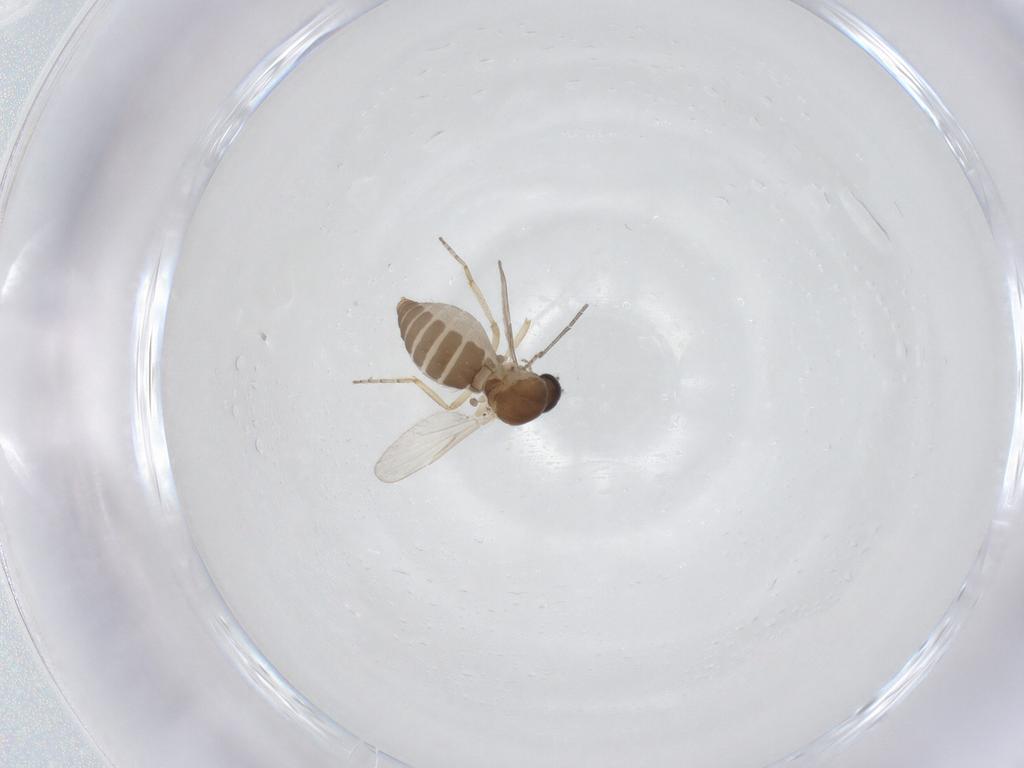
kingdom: Animalia
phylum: Arthropoda
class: Insecta
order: Diptera
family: Ceratopogonidae
